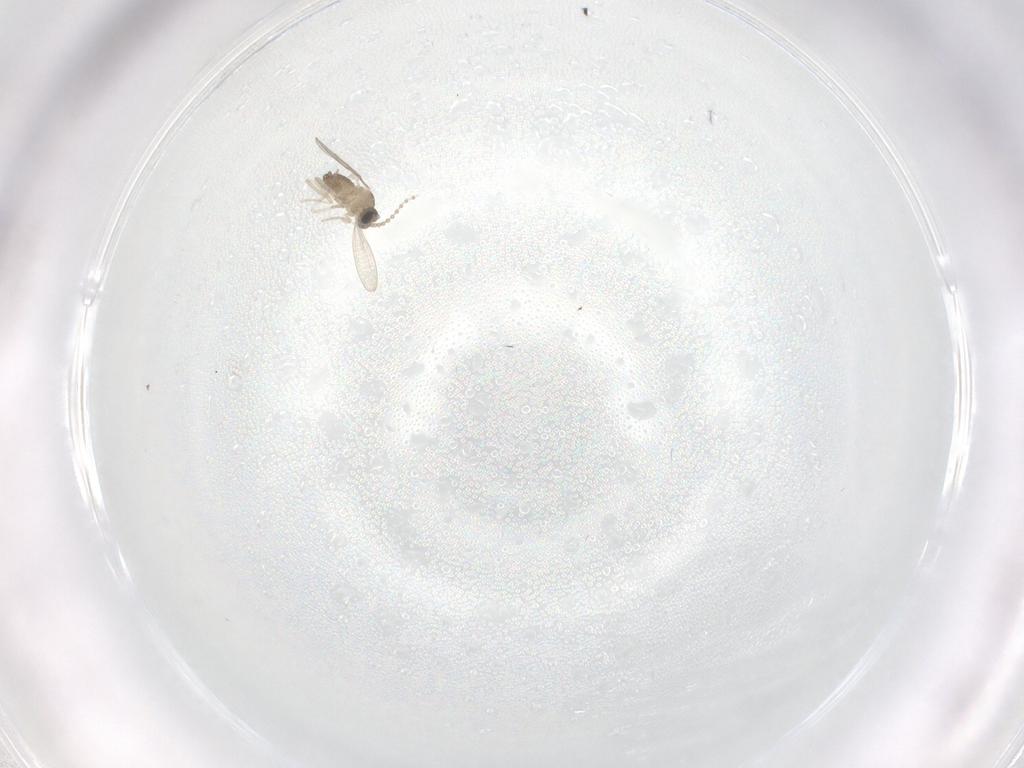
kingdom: Animalia
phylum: Arthropoda
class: Insecta
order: Diptera
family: Cecidomyiidae
